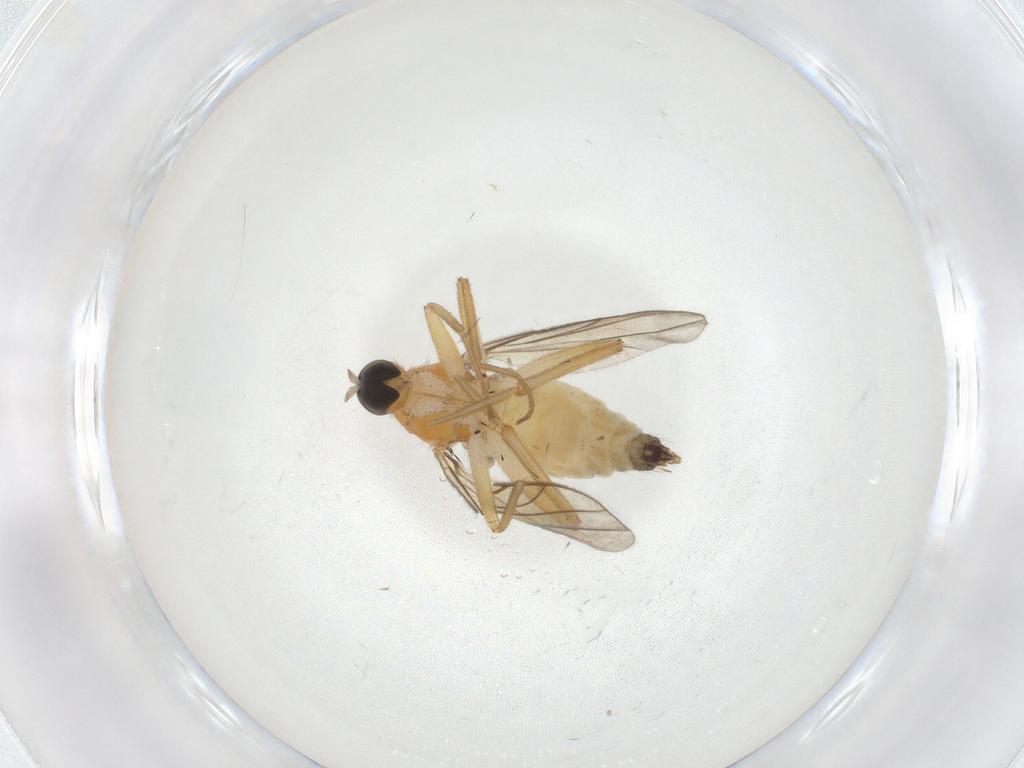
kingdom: Animalia
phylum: Arthropoda
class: Insecta
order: Diptera
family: Hybotidae
